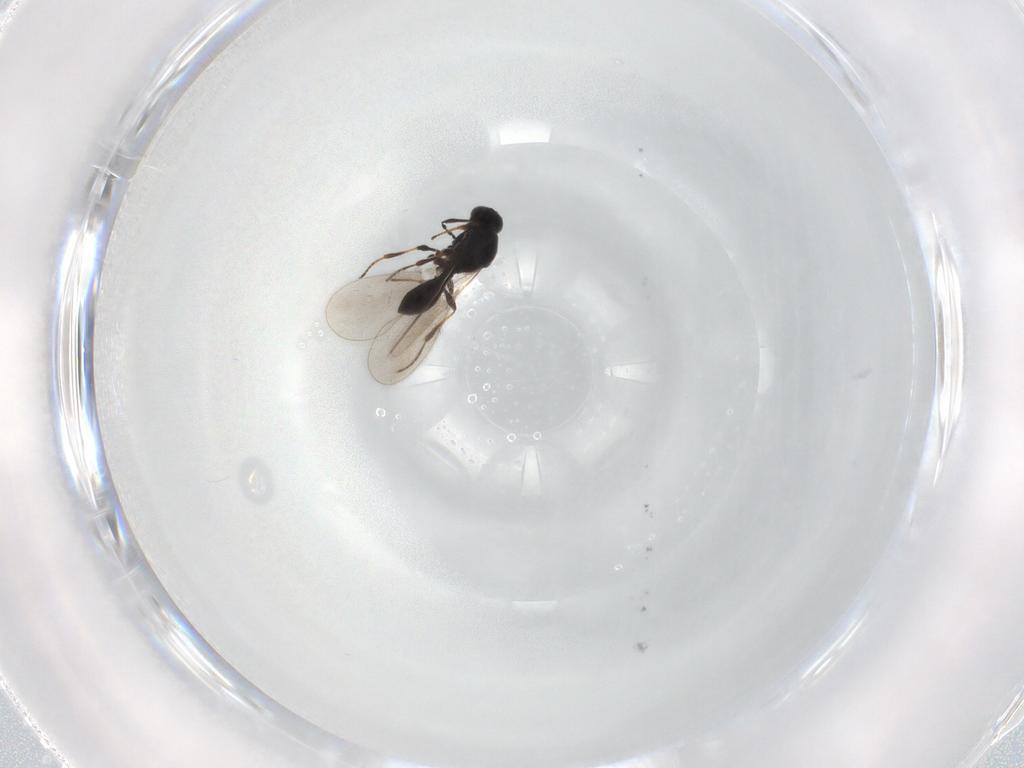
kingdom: Animalia
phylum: Arthropoda
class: Insecta
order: Hymenoptera
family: Platygastridae
